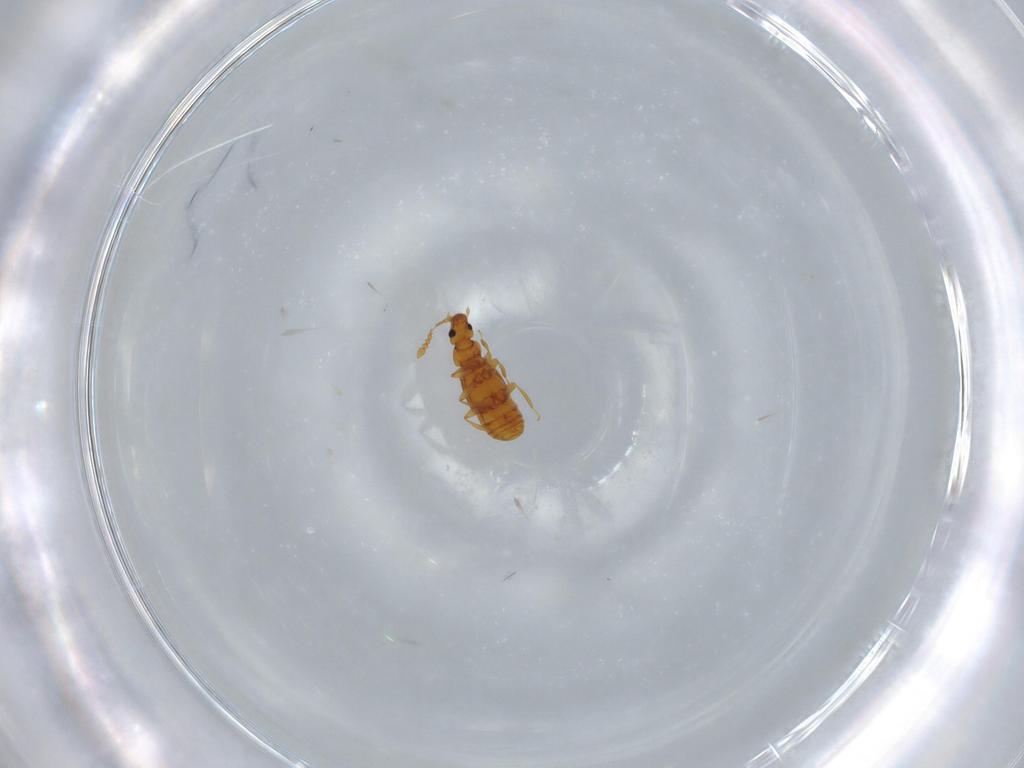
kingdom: Animalia
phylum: Arthropoda
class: Insecta
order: Coleoptera
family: Staphylinidae
